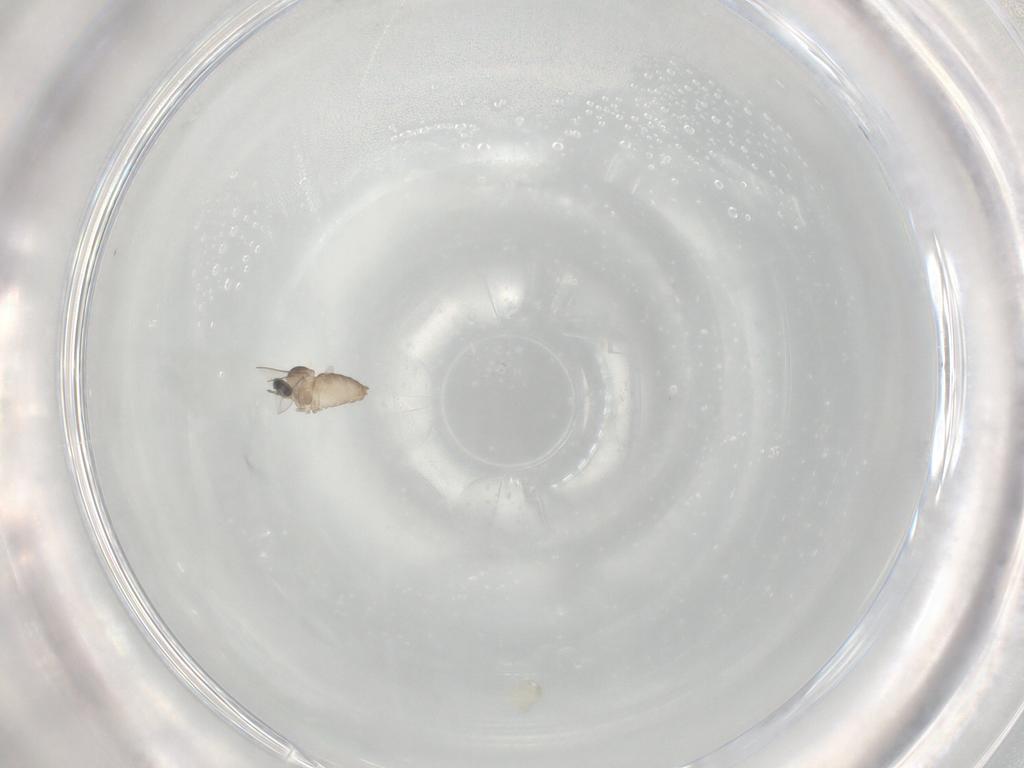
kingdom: Animalia
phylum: Arthropoda
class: Insecta
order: Diptera
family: Cecidomyiidae
